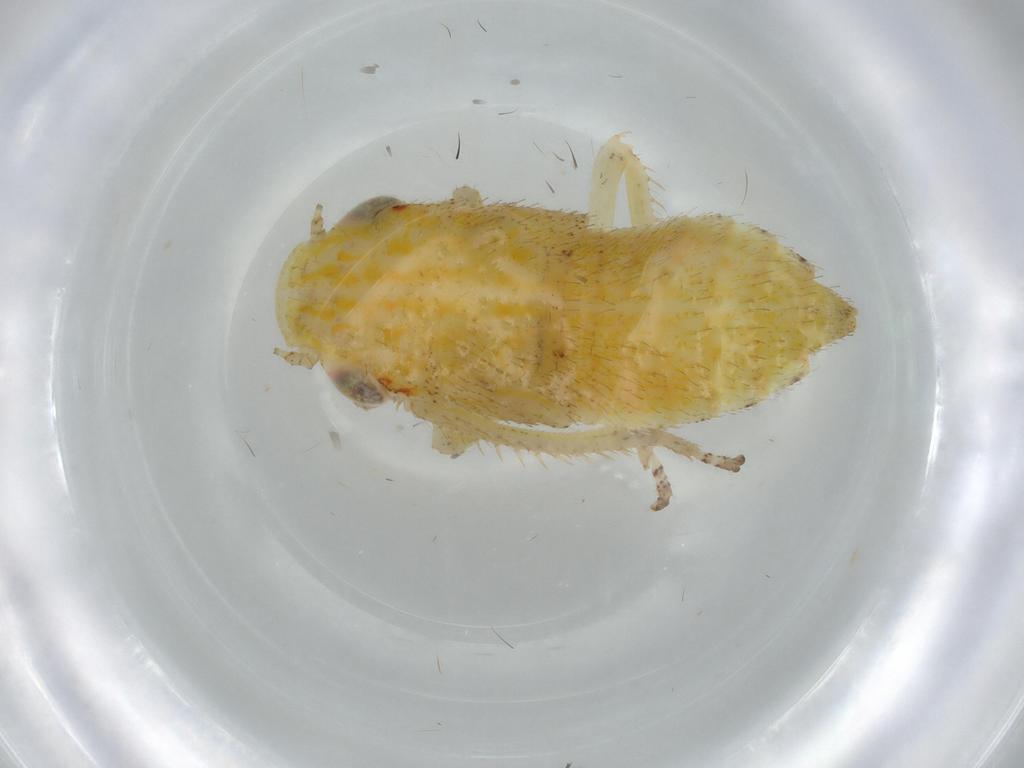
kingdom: Animalia
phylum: Arthropoda
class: Insecta
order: Hemiptera
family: Cicadellidae
